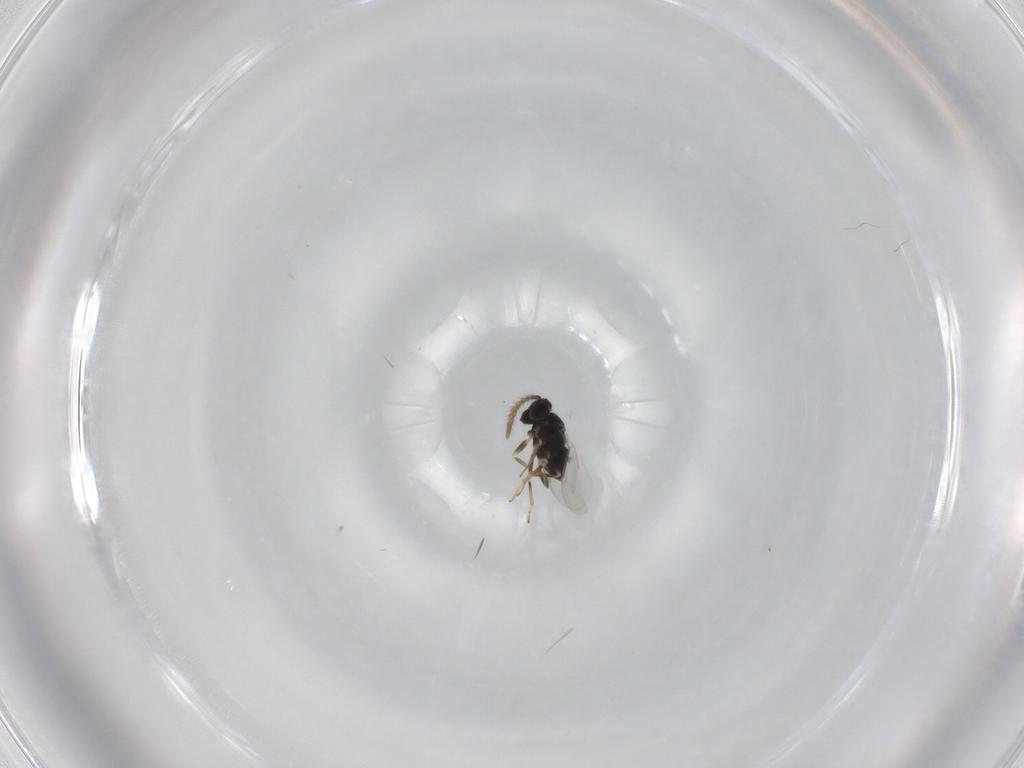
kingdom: Animalia
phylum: Arthropoda
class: Insecta
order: Hymenoptera
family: Encyrtidae
